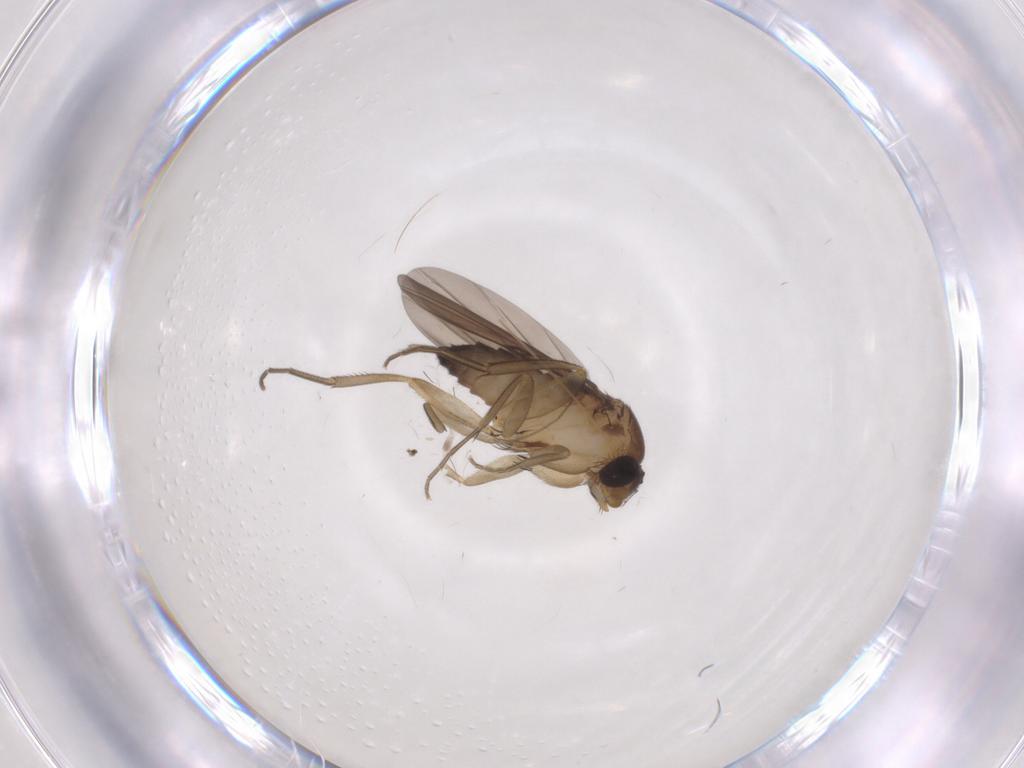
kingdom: Animalia
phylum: Arthropoda
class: Insecta
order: Diptera
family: Phoridae
